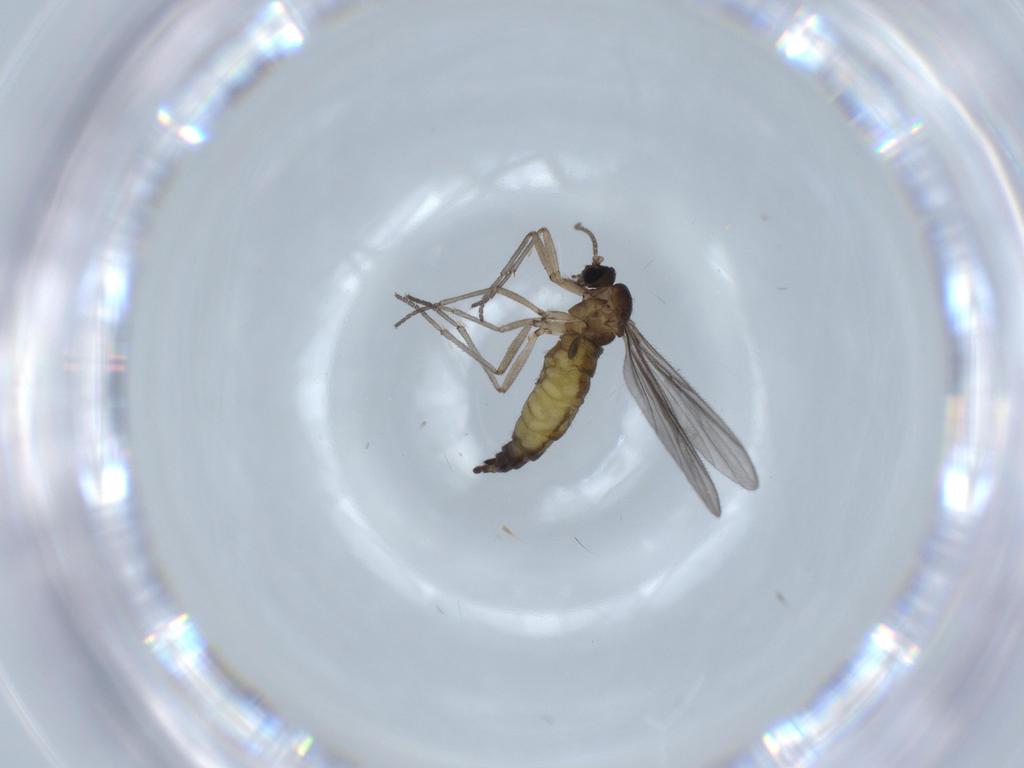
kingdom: Animalia
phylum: Arthropoda
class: Insecta
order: Diptera
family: Sciaridae
